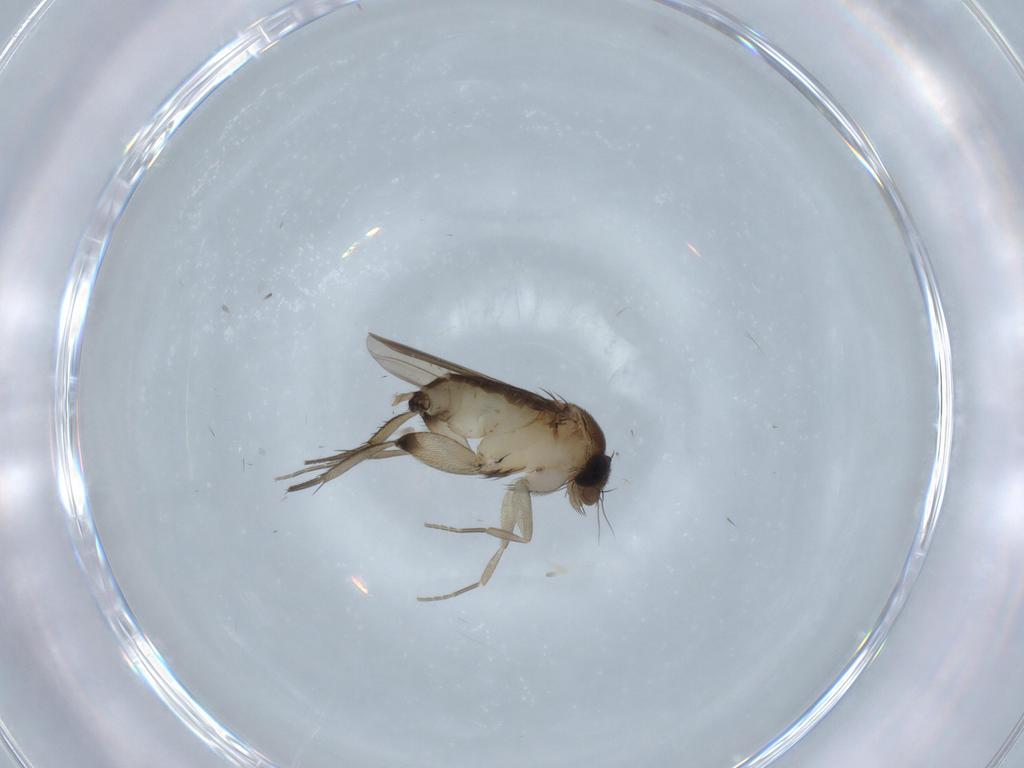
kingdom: Animalia
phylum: Arthropoda
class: Insecta
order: Diptera
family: Phoridae
